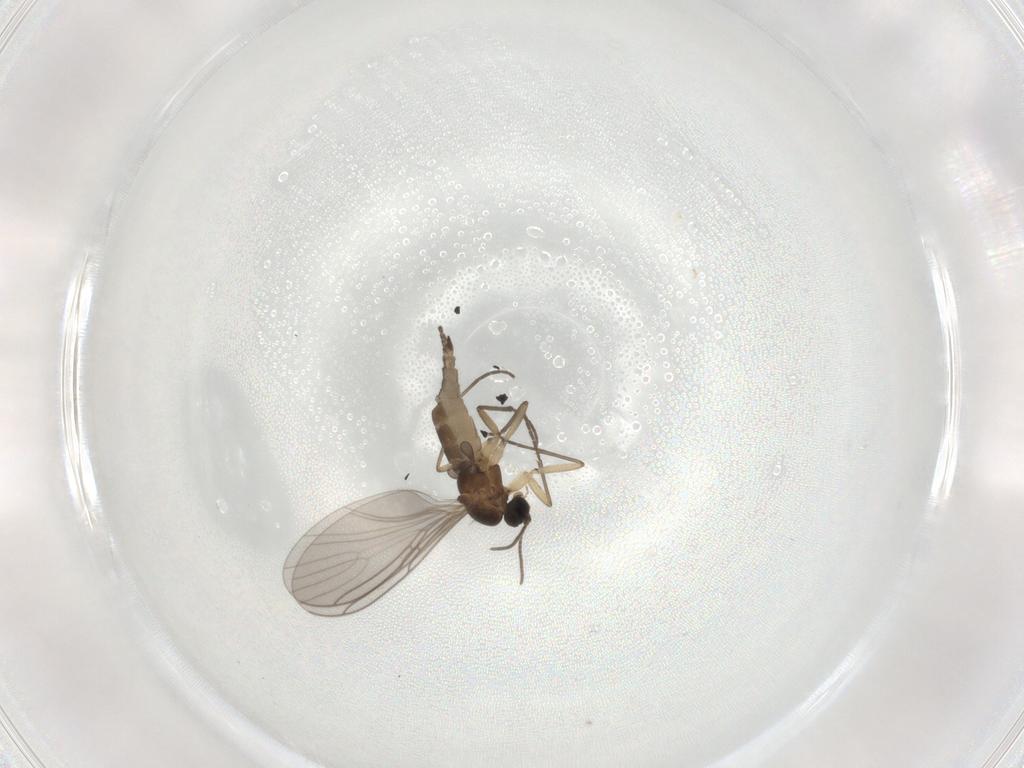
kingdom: Animalia
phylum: Arthropoda
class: Insecta
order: Diptera
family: Sciaridae
